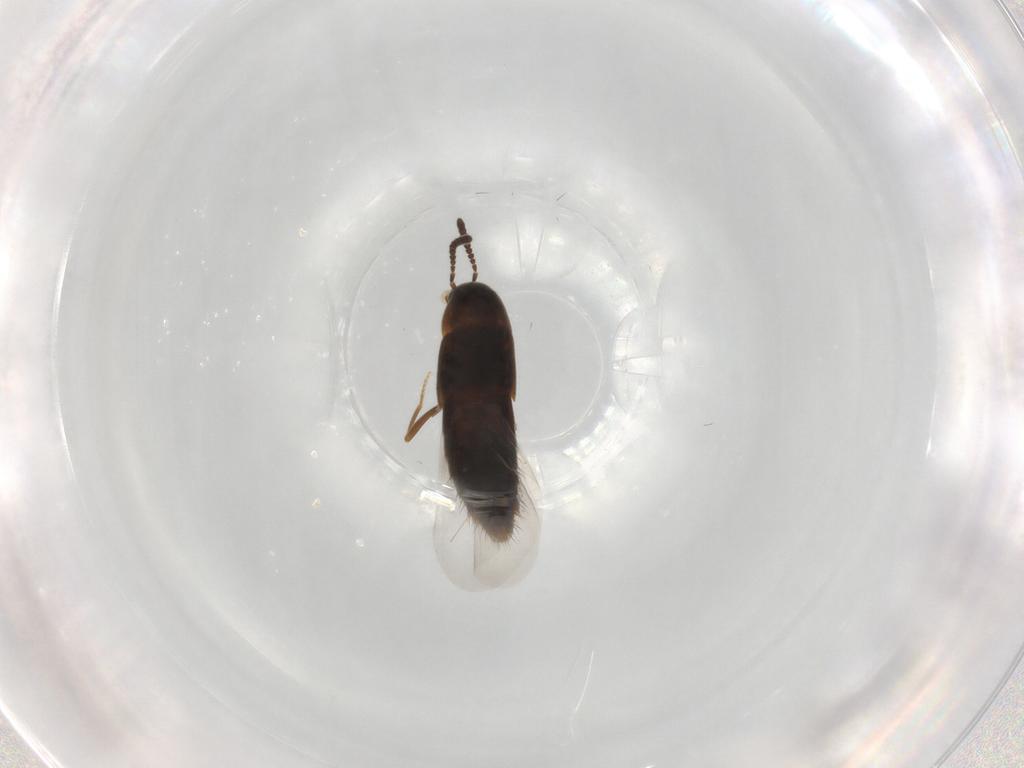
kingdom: Animalia
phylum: Arthropoda
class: Insecta
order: Coleoptera
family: Staphylinidae
